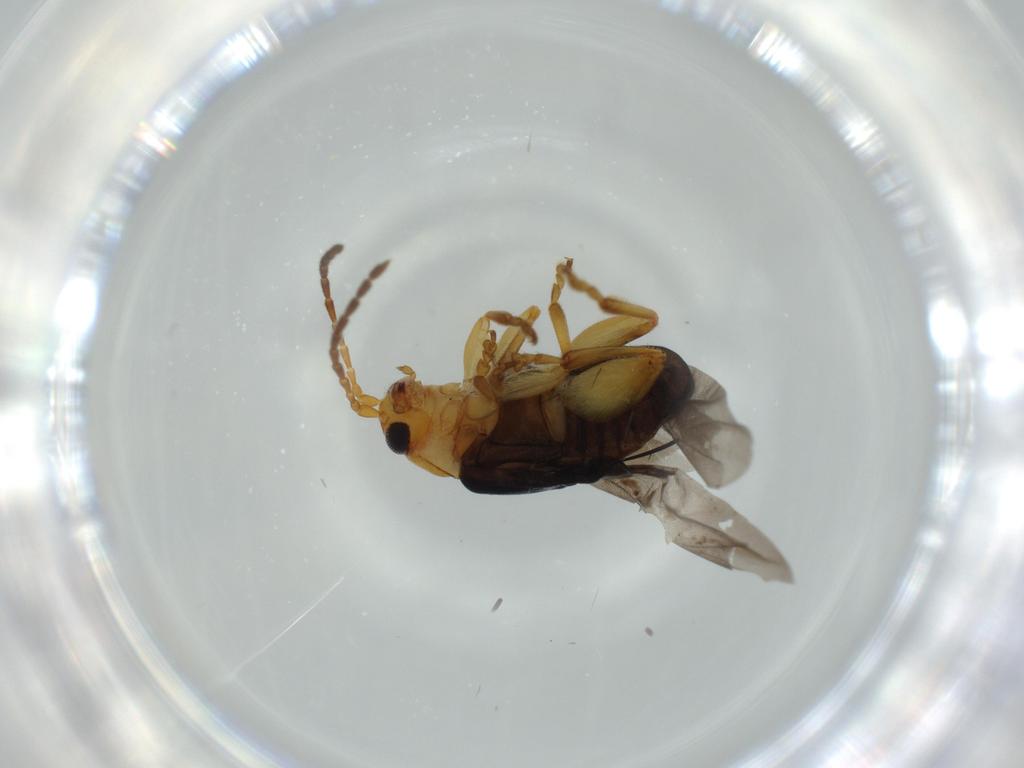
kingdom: Animalia
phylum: Arthropoda
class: Insecta
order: Coleoptera
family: Chrysomelidae
